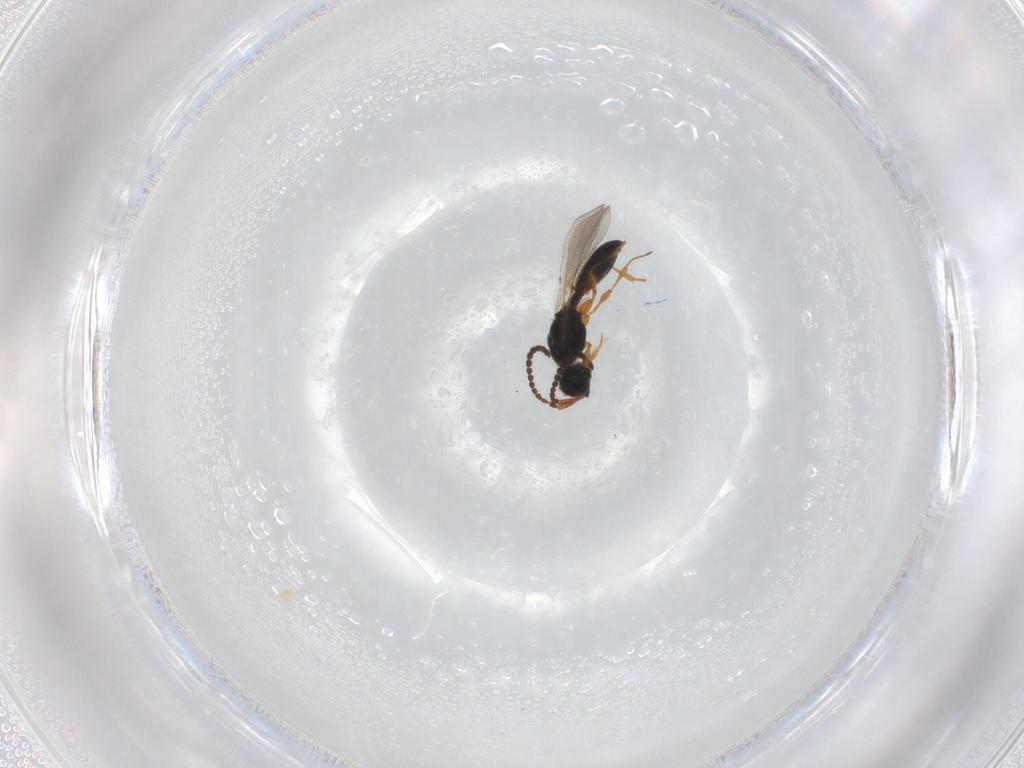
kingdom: Animalia
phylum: Arthropoda
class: Insecta
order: Hymenoptera
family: Diapriidae
